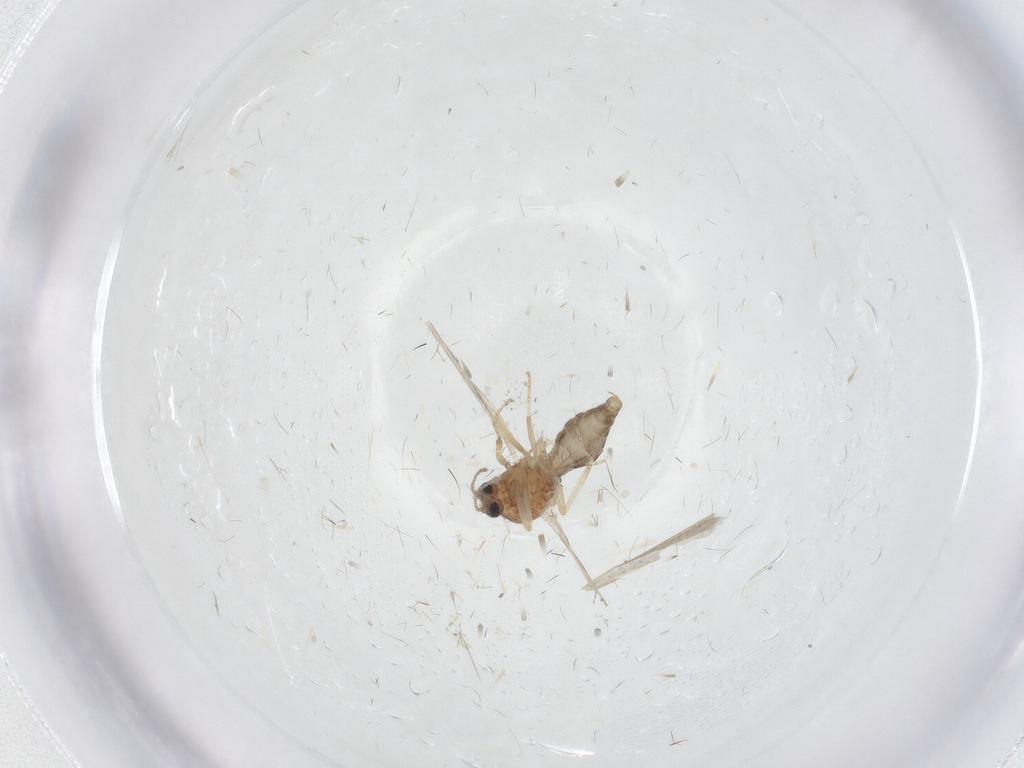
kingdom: Animalia
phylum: Arthropoda
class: Insecta
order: Diptera
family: Ceratopogonidae
